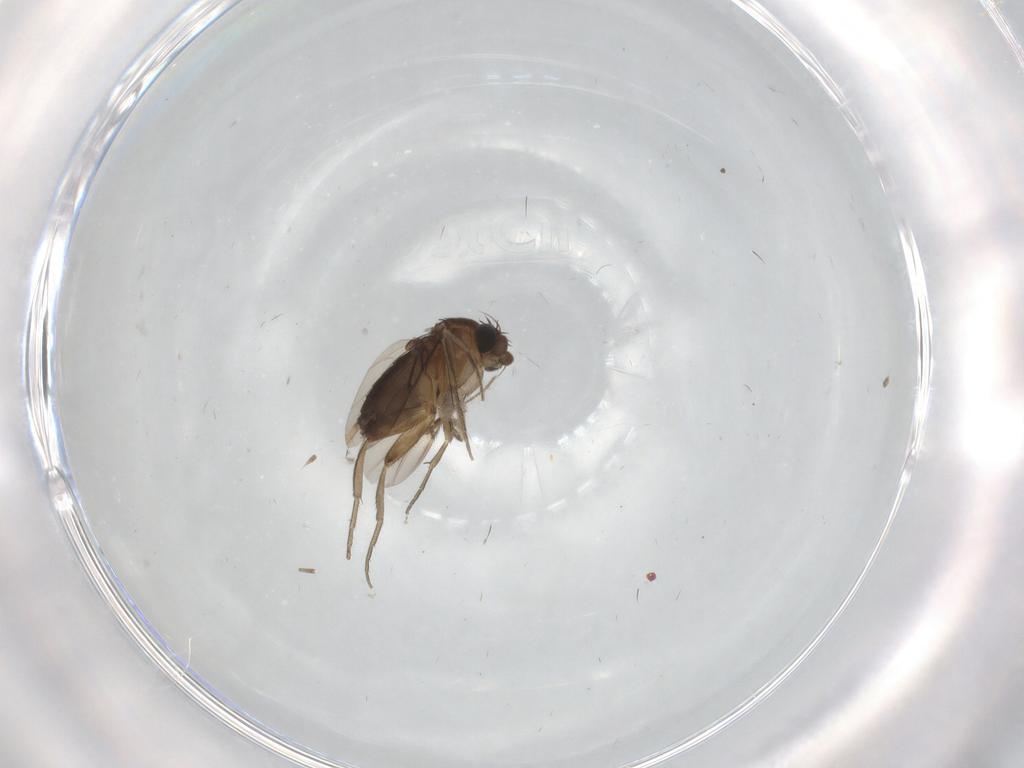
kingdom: Animalia
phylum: Arthropoda
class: Insecta
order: Diptera
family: Phoridae
